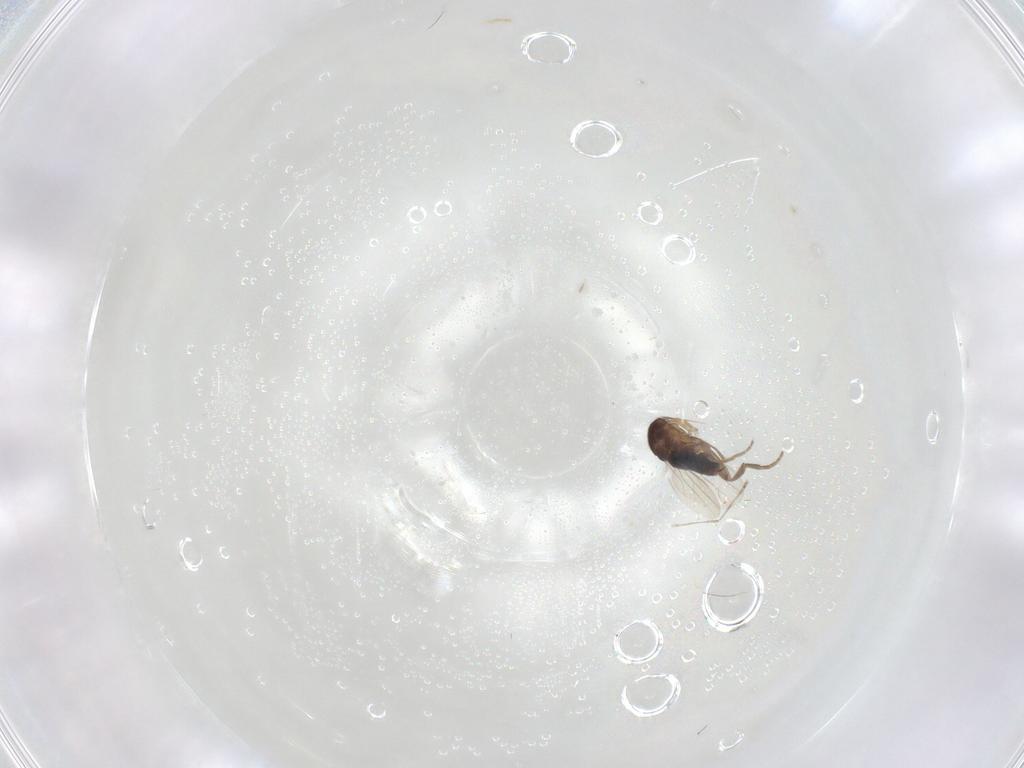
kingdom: Animalia
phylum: Arthropoda
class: Insecta
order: Diptera
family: Phoridae
